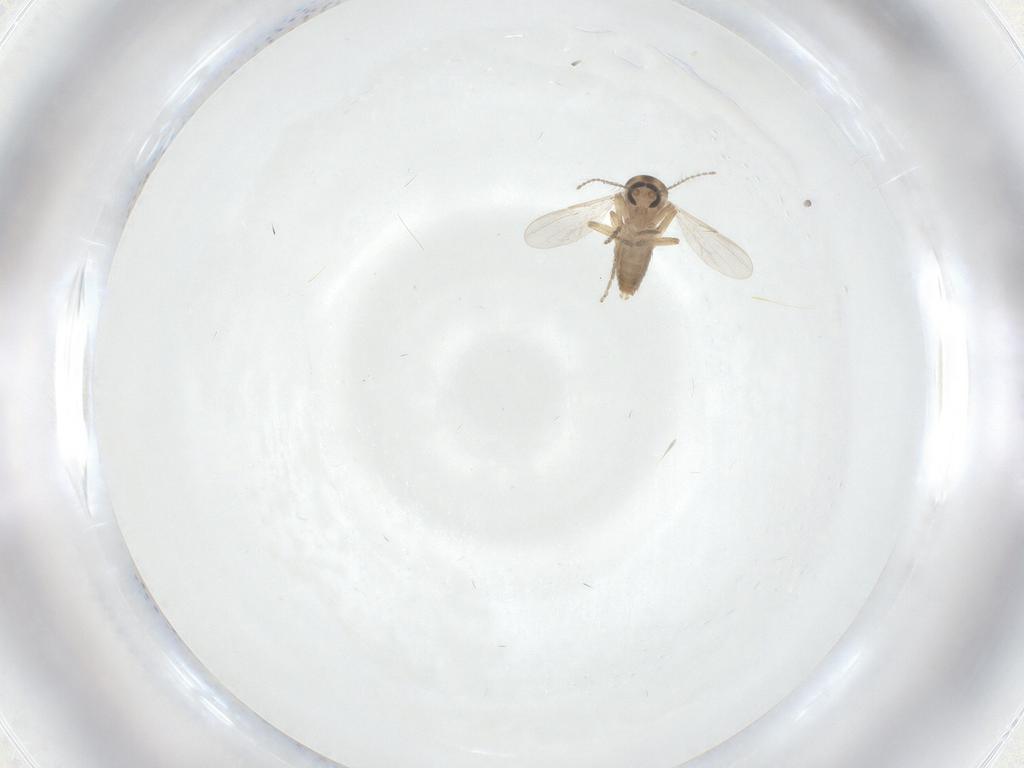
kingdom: Animalia
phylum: Arthropoda
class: Insecta
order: Diptera
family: Ceratopogonidae
